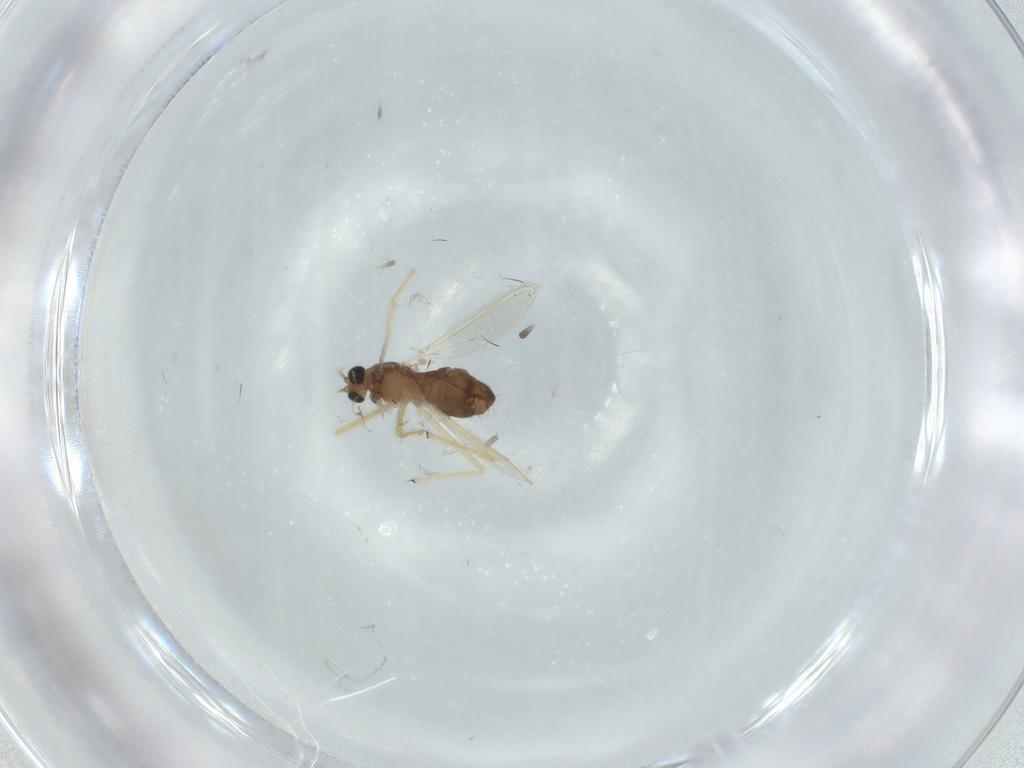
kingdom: Animalia
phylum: Arthropoda
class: Insecta
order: Diptera
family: Chironomidae
